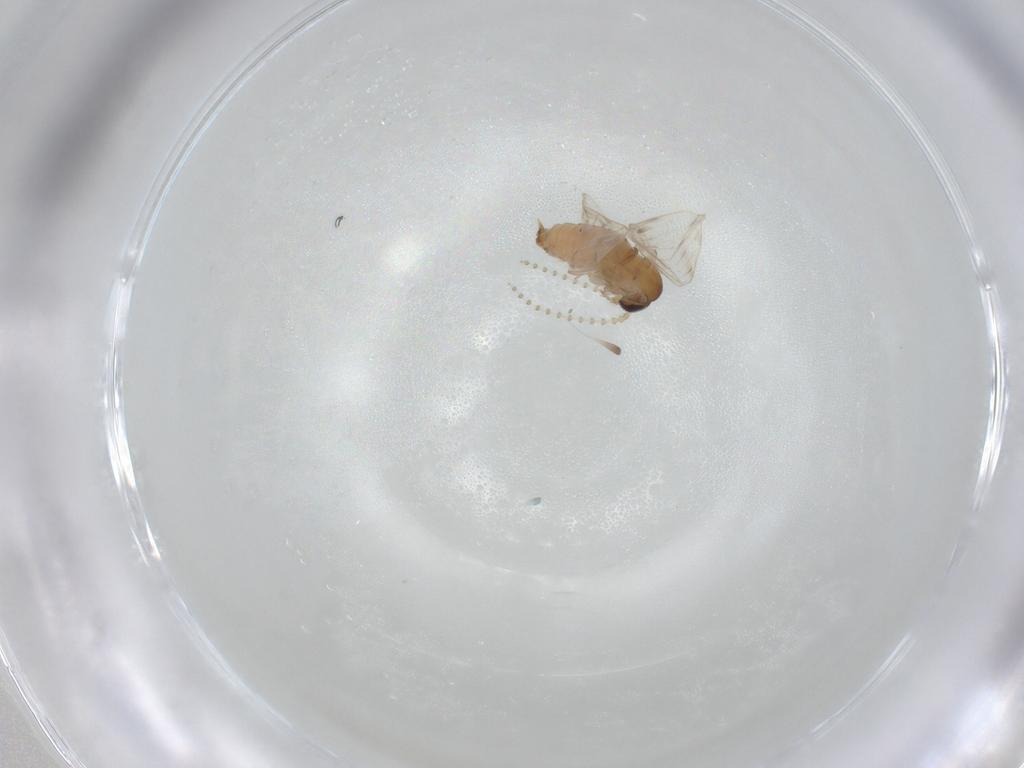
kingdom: Animalia
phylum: Arthropoda
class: Insecta
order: Diptera
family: Psychodidae
